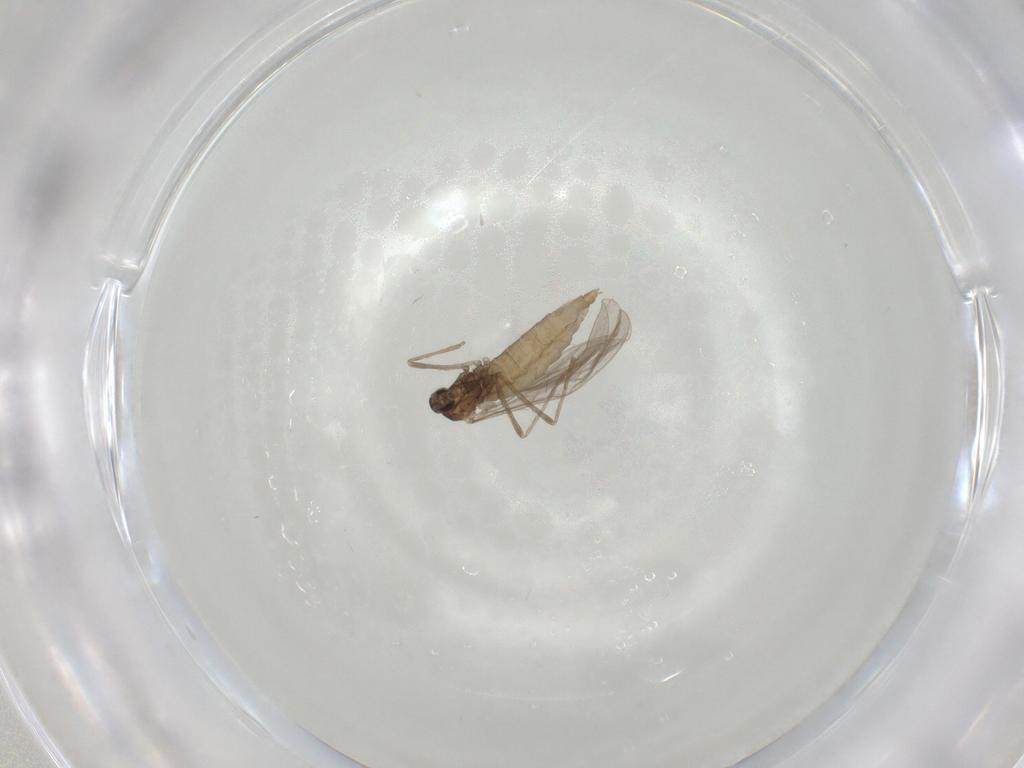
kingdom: Animalia
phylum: Arthropoda
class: Insecta
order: Diptera
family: Cecidomyiidae
